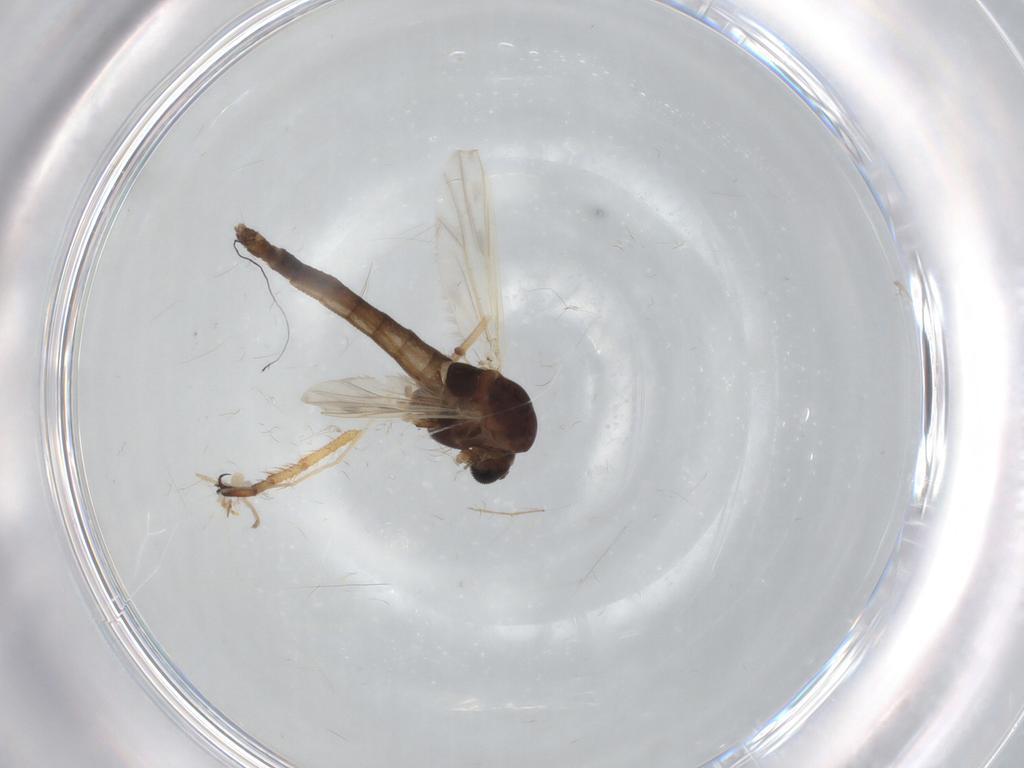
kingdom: Animalia
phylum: Arthropoda
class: Insecta
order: Diptera
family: Chironomidae
